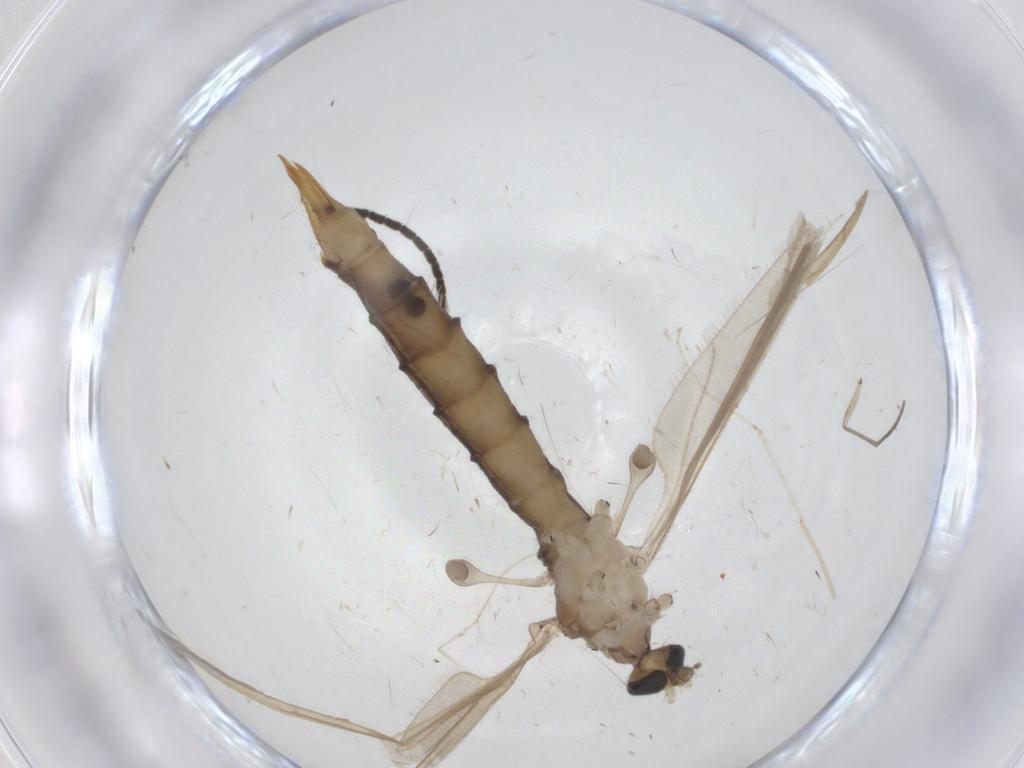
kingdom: Animalia
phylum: Arthropoda
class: Insecta
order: Diptera
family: Limoniidae
